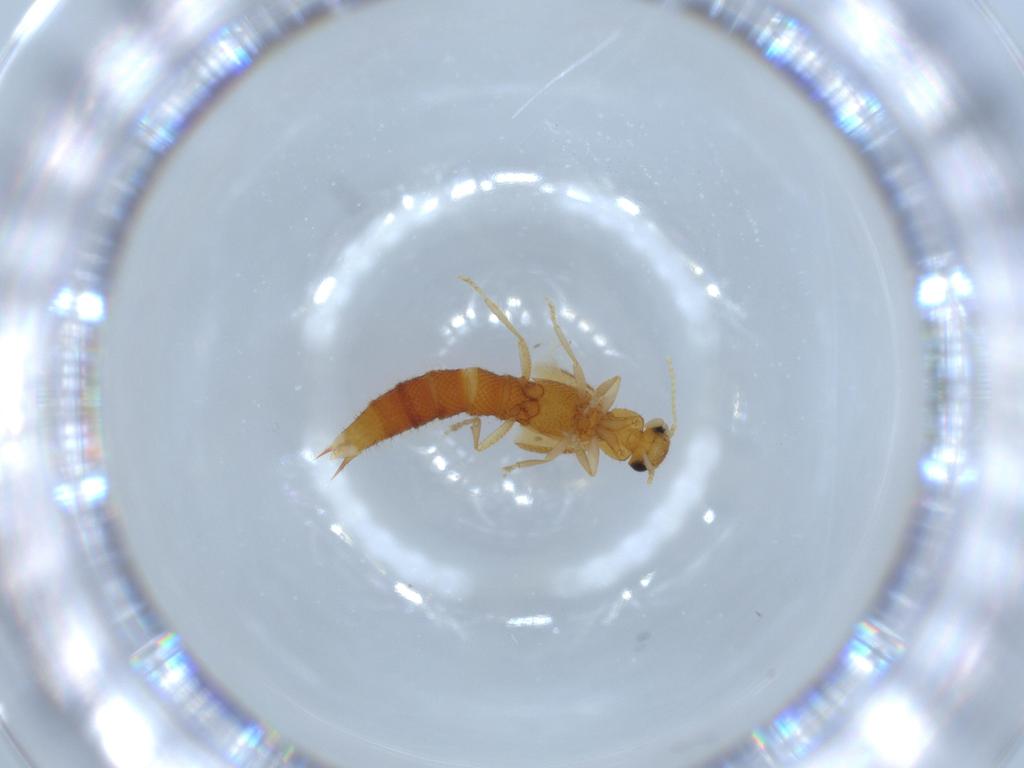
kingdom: Animalia
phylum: Arthropoda
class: Insecta
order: Coleoptera
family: Staphylinidae
